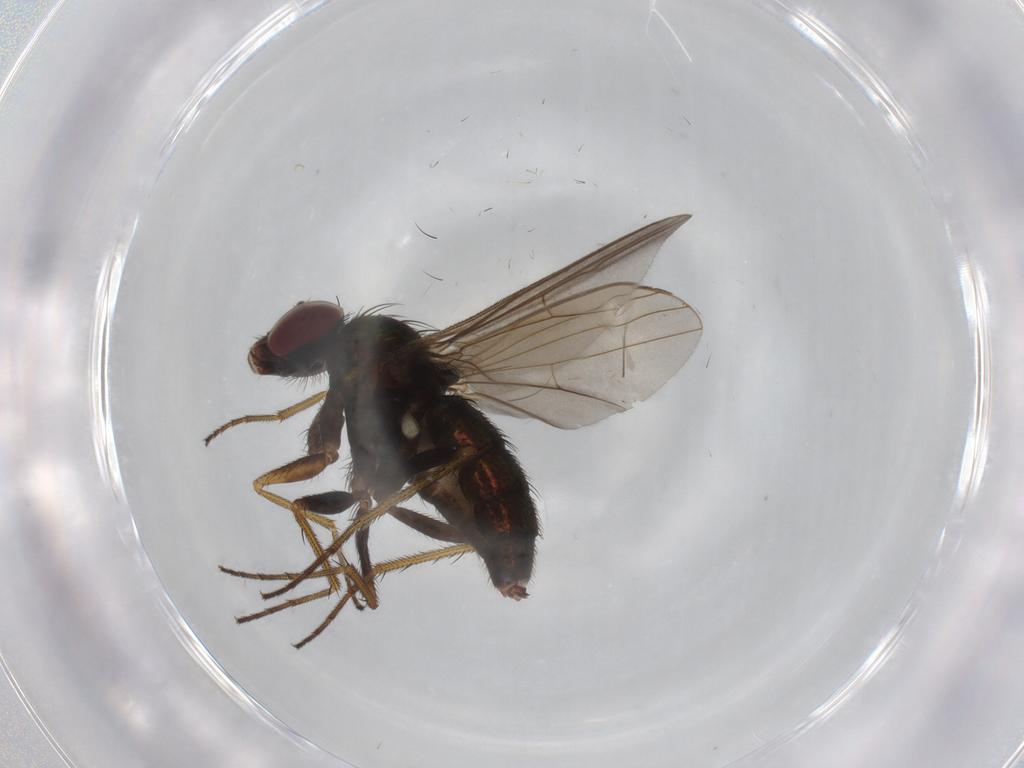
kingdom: Animalia
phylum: Arthropoda
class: Insecta
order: Diptera
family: Dolichopodidae
